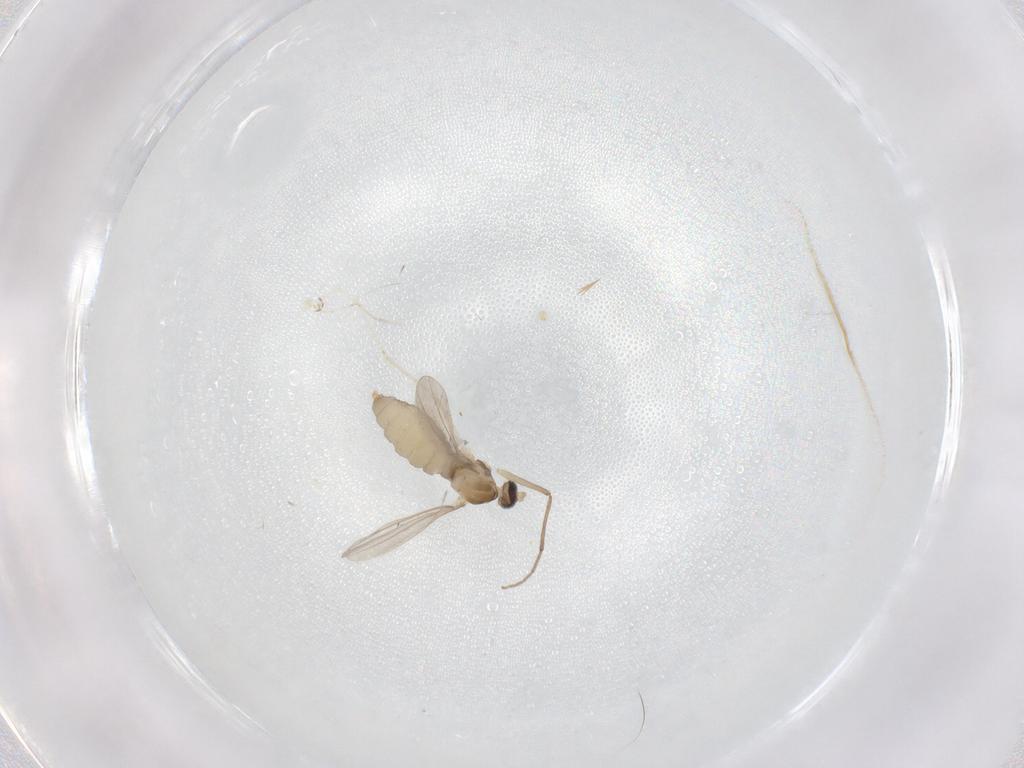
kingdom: Animalia
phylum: Arthropoda
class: Insecta
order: Diptera
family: Cecidomyiidae
